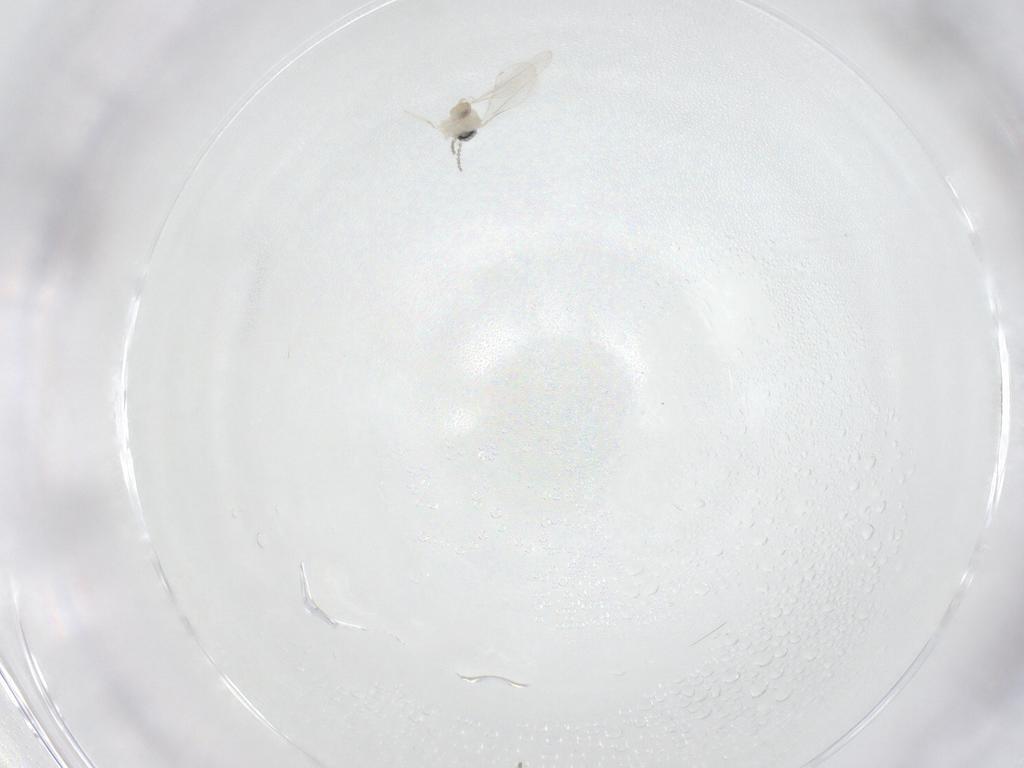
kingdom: Animalia
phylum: Arthropoda
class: Insecta
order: Diptera
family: Cecidomyiidae
